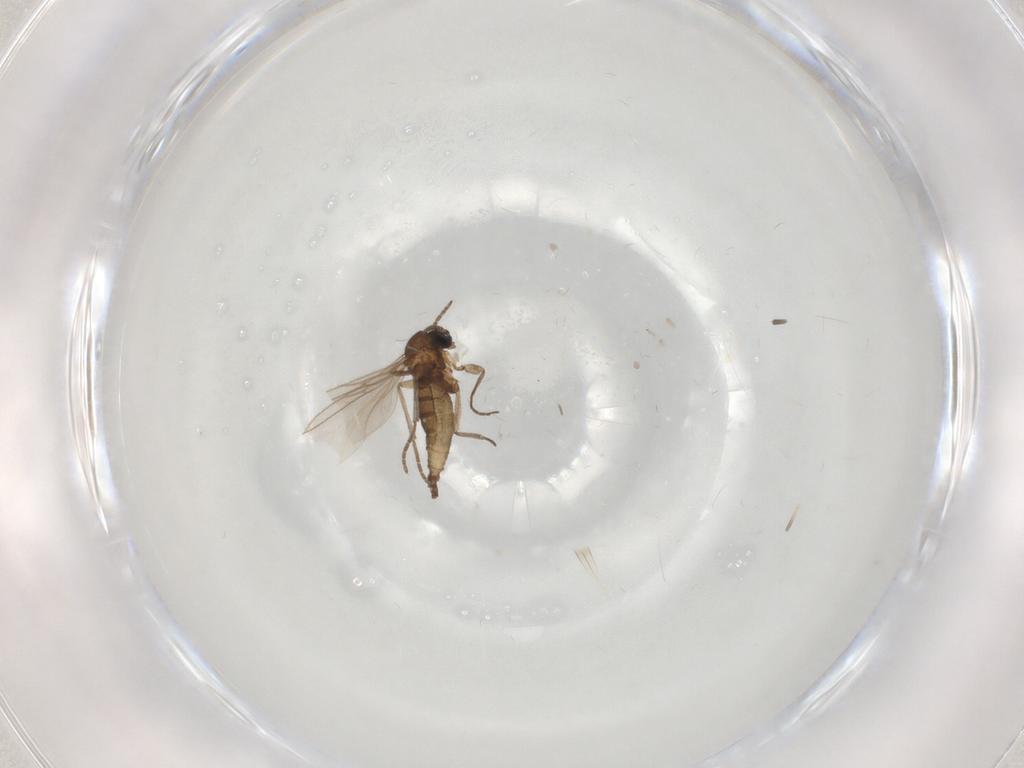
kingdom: Animalia
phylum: Arthropoda
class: Insecta
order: Diptera
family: Sciaridae
